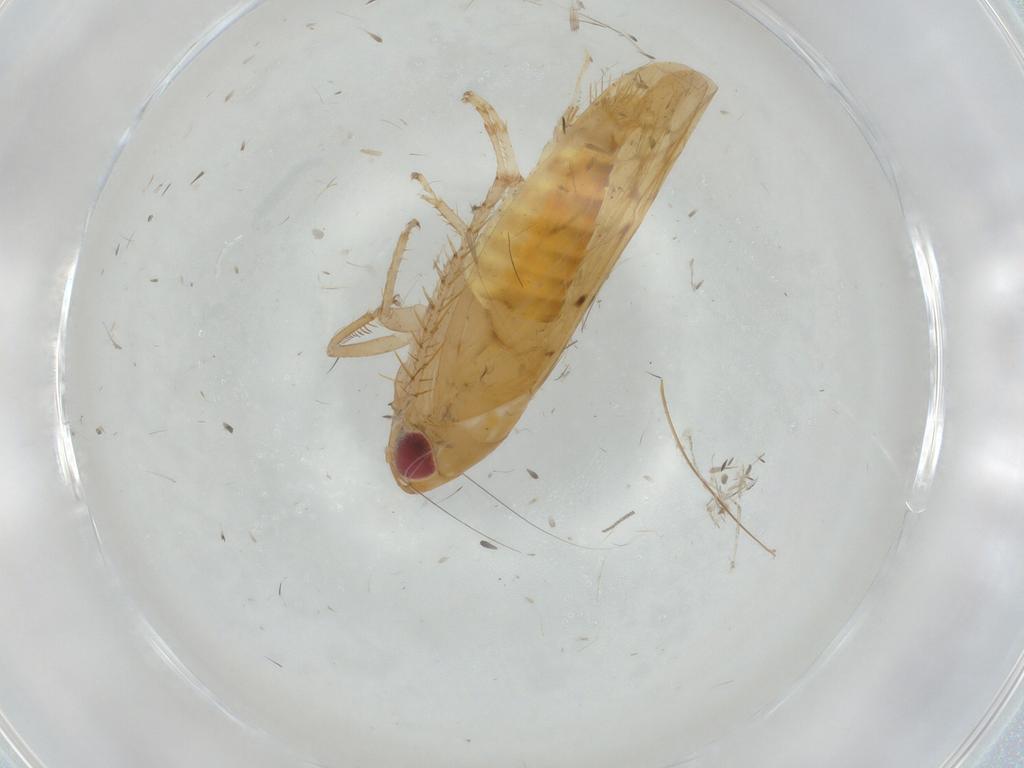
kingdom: Animalia
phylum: Arthropoda
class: Insecta
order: Hemiptera
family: Cicadellidae
